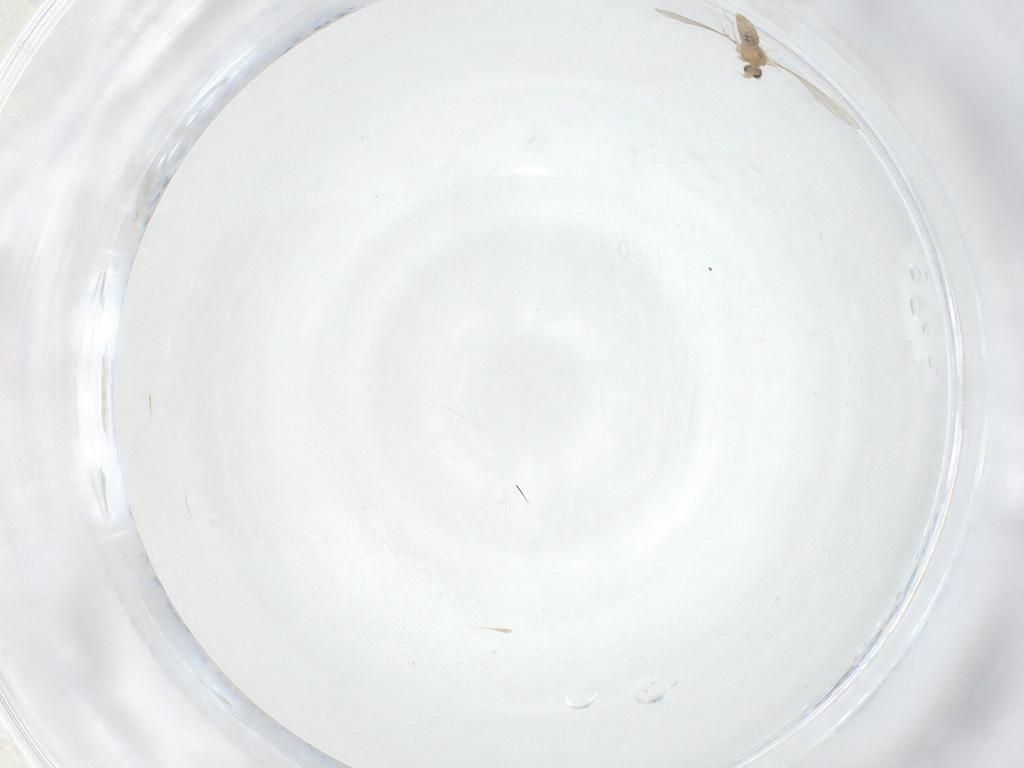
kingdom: Animalia
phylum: Arthropoda
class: Insecta
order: Diptera
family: Cecidomyiidae
